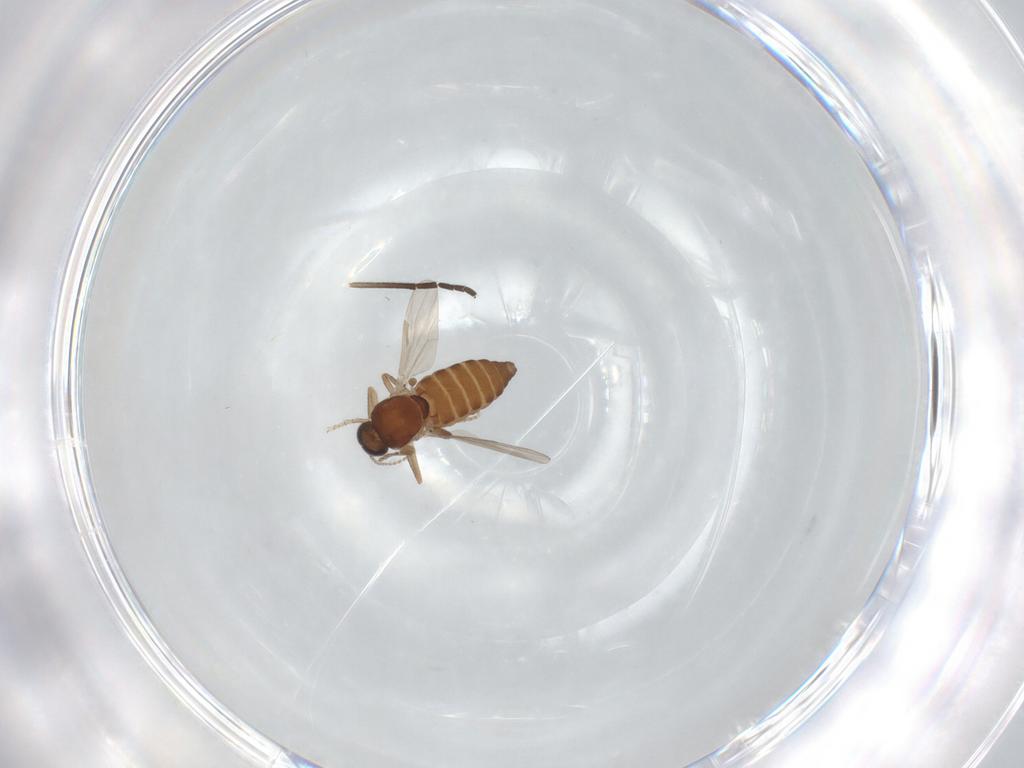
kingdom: Animalia
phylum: Arthropoda
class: Insecta
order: Diptera
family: Ceratopogonidae
